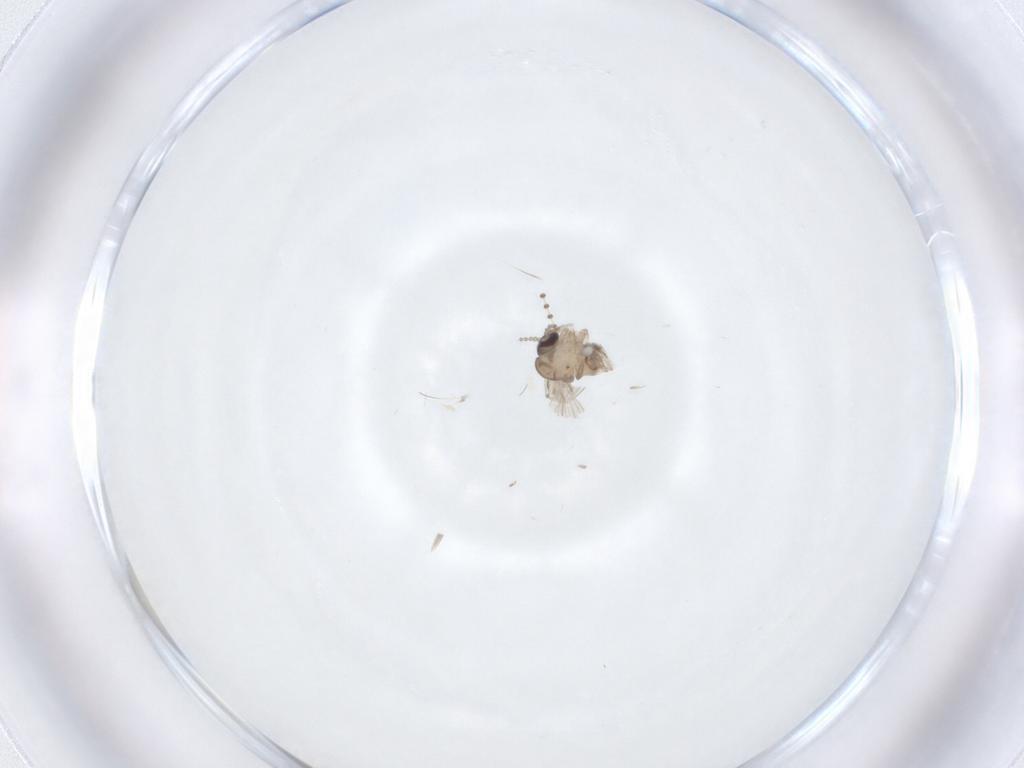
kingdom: Animalia
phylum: Arthropoda
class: Insecta
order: Diptera
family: Psychodidae
